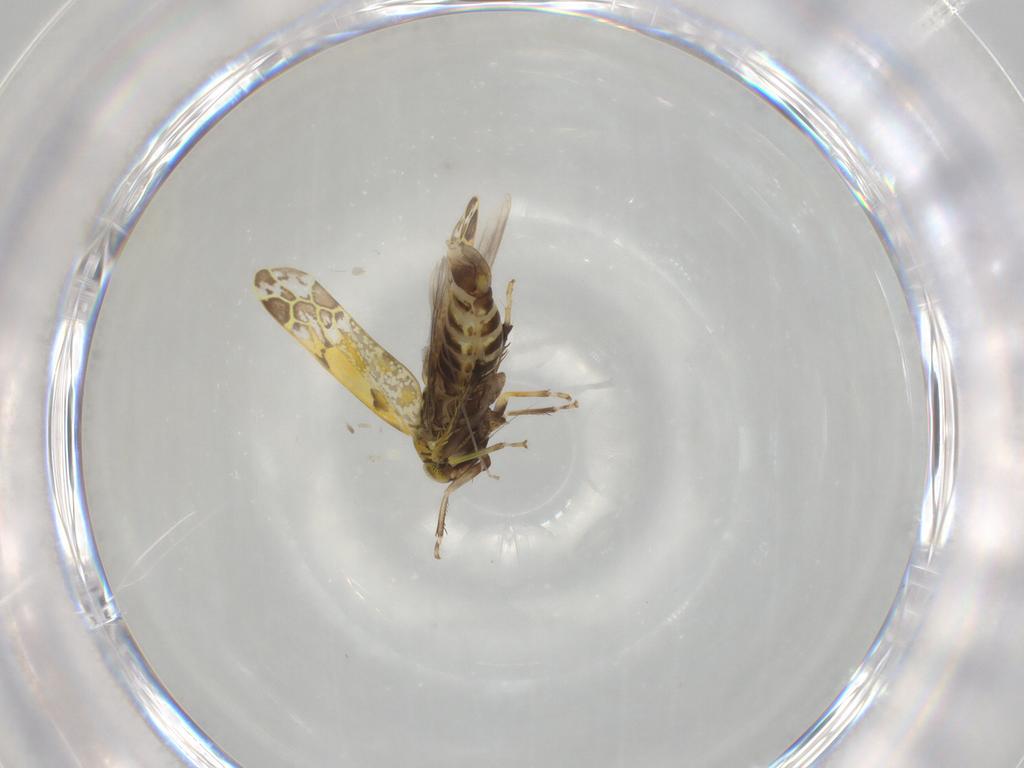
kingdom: Animalia
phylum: Arthropoda
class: Insecta
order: Hemiptera
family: Cicadellidae
